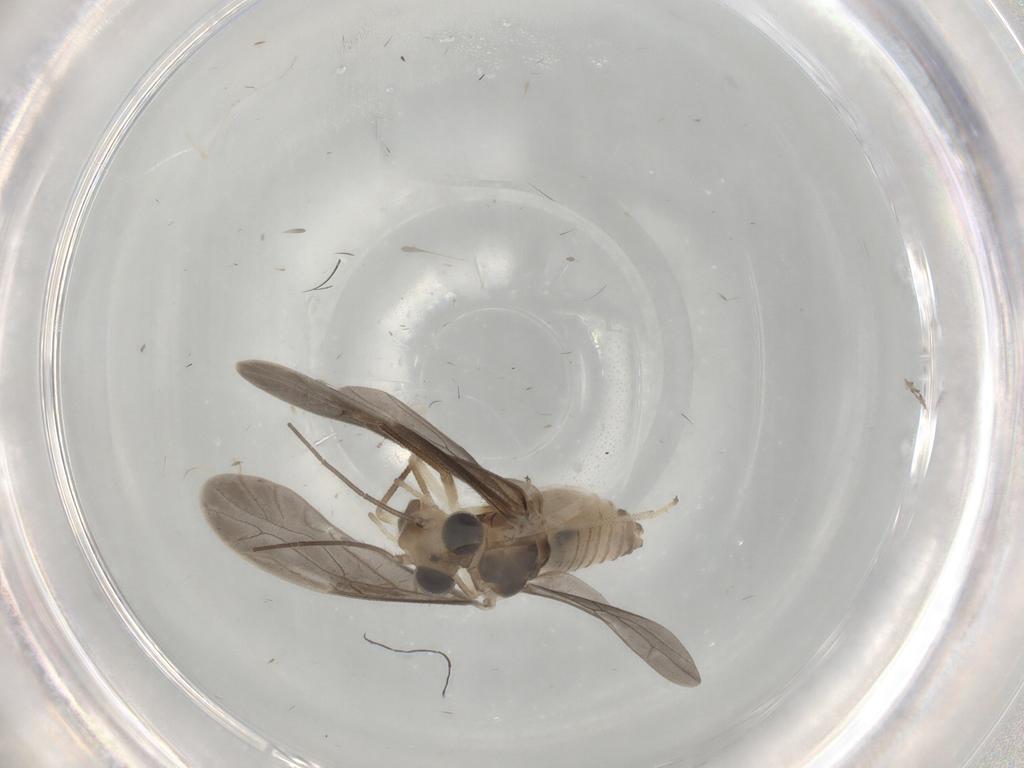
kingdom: Animalia
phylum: Arthropoda
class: Insecta
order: Psocodea
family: Caeciliusidae
